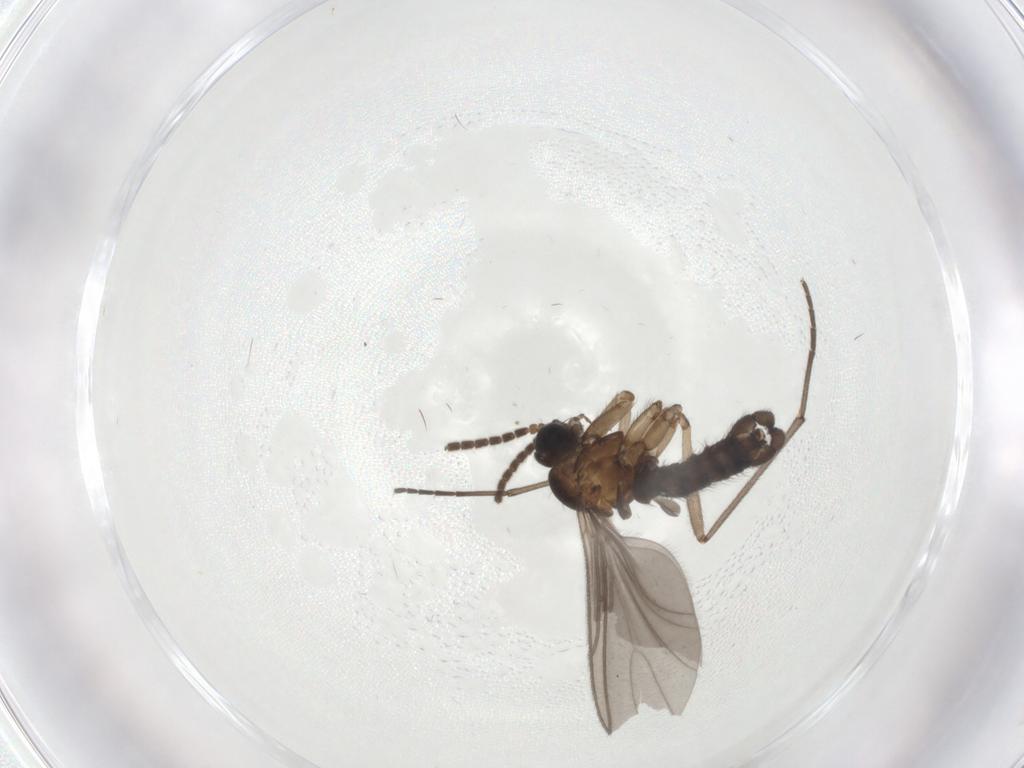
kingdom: Animalia
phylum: Arthropoda
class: Insecta
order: Diptera
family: Sciaridae
